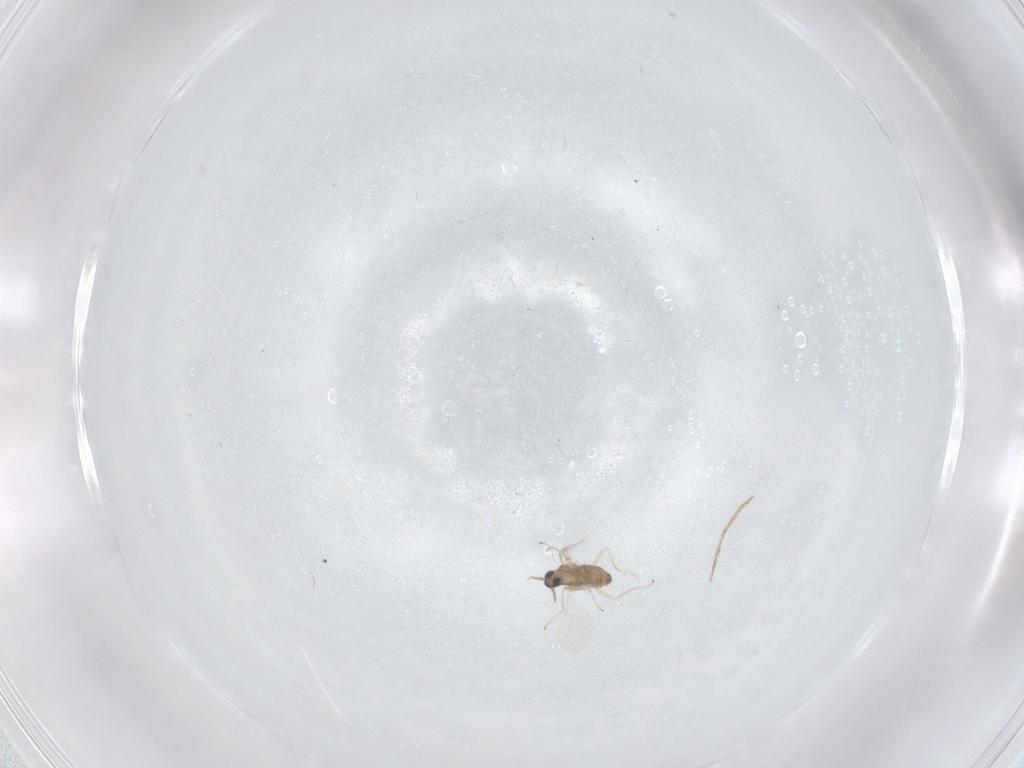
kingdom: Animalia
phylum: Arthropoda
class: Insecta
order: Diptera
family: Cecidomyiidae
